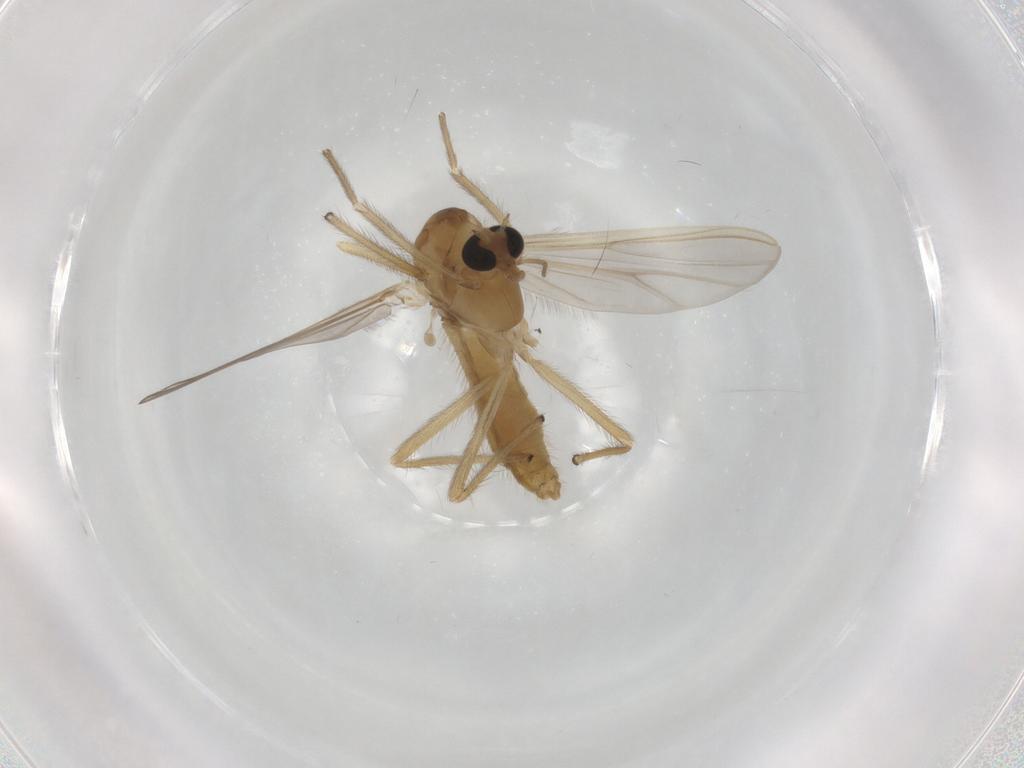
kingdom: Animalia
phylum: Arthropoda
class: Insecta
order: Diptera
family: Chironomidae
